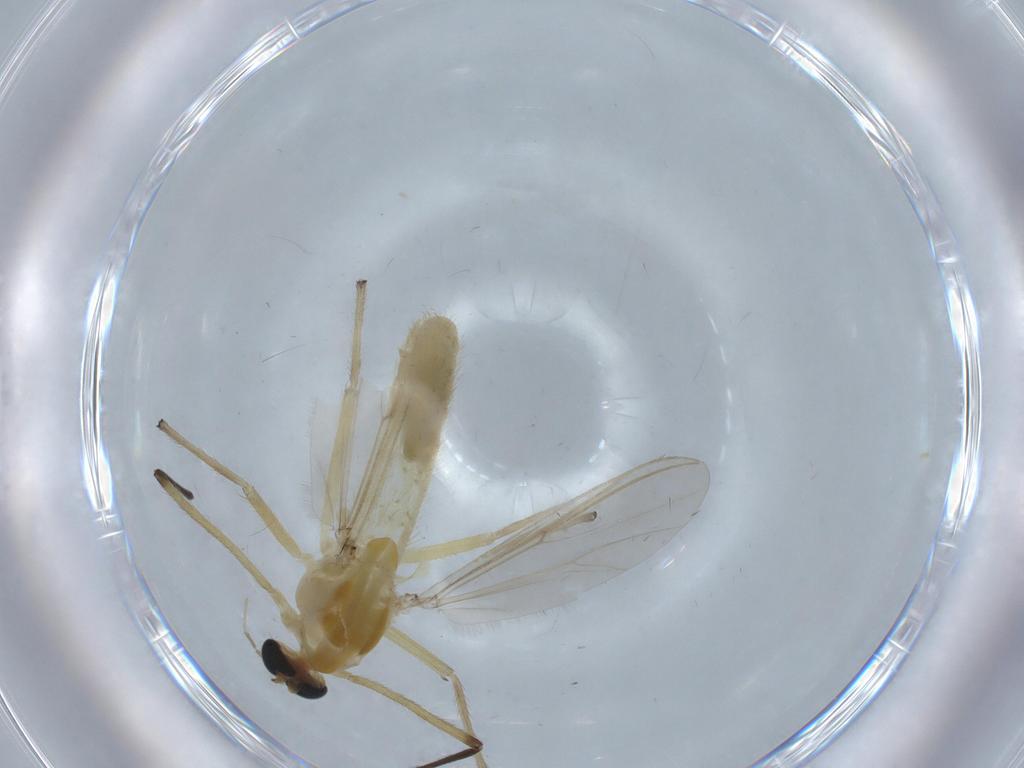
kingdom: Animalia
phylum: Arthropoda
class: Insecta
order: Diptera
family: Dolichopodidae
